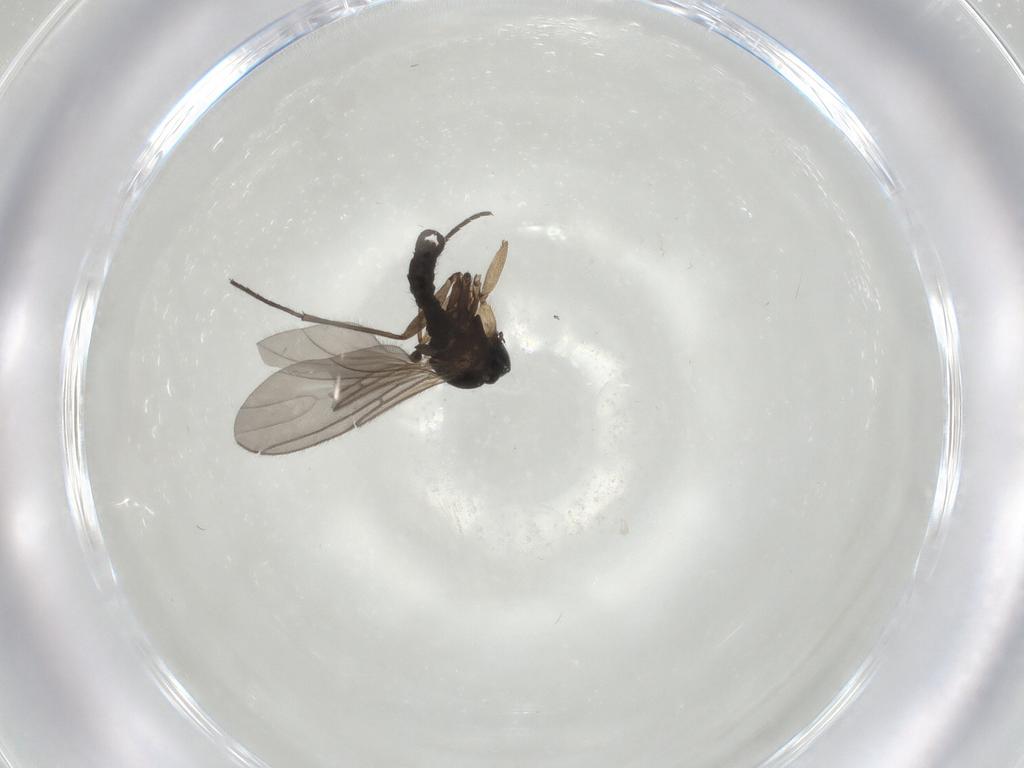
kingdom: Animalia
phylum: Arthropoda
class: Insecta
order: Diptera
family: Sciaridae
